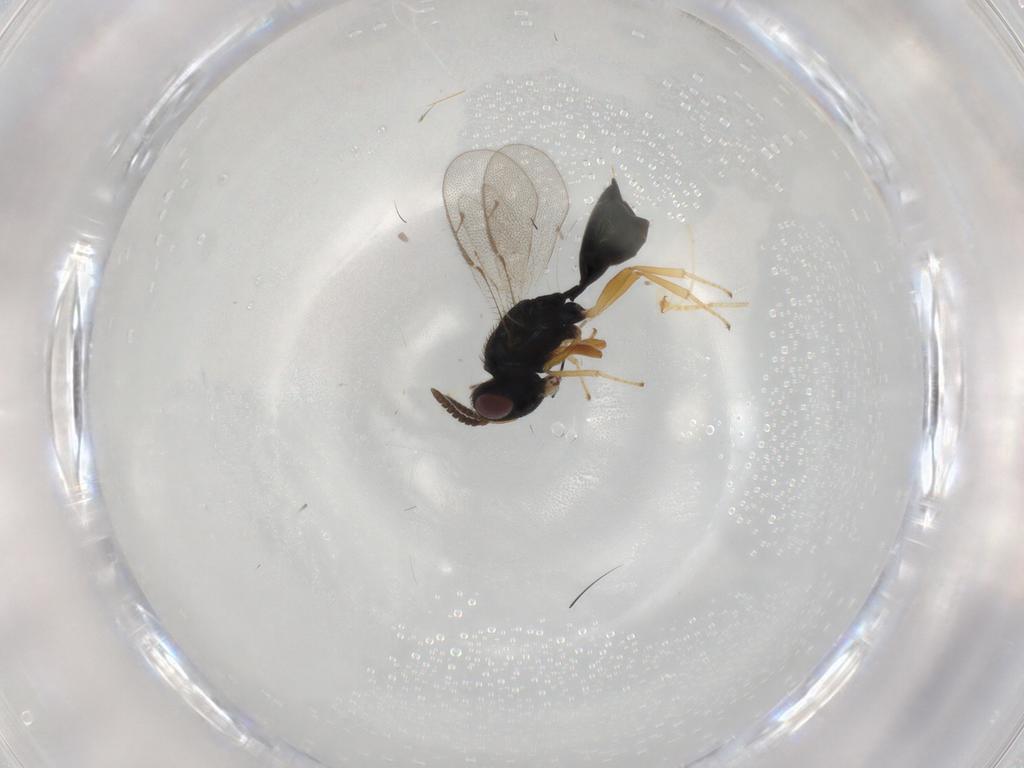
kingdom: Animalia
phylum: Arthropoda
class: Insecta
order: Hymenoptera
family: Formicidae
